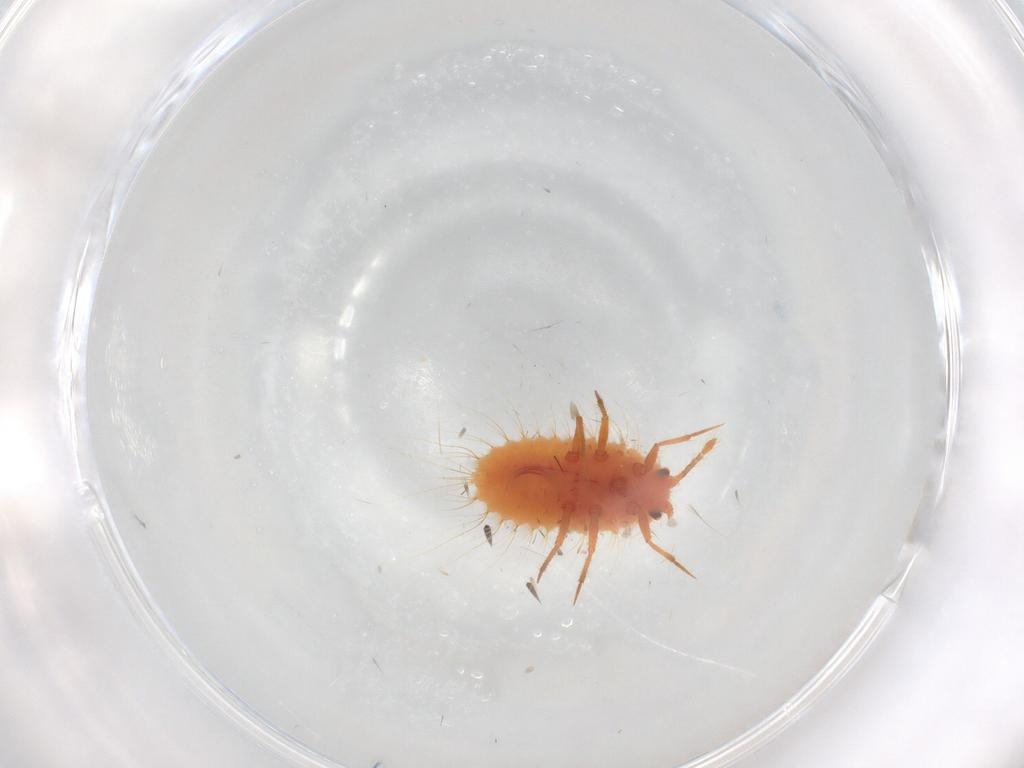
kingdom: Animalia
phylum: Arthropoda
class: Insecta
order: Hemiptera
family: Coccoidea_incertae_sedis
